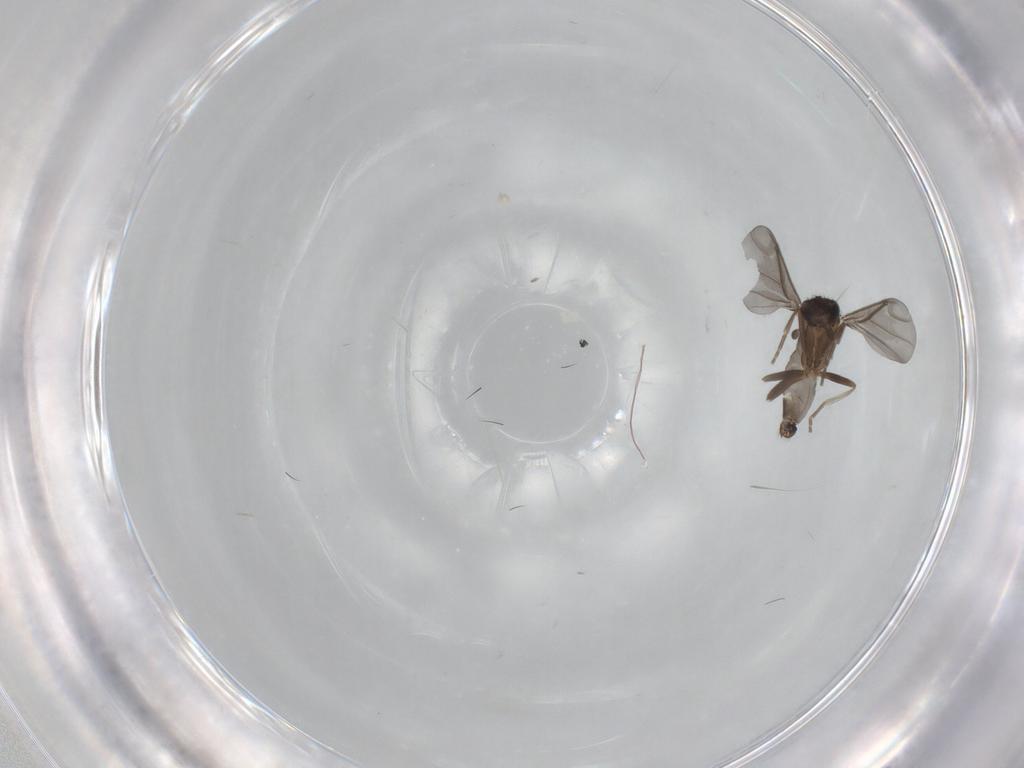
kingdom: Animalia
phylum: Arthropoda
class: Insecta
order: Diptera
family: Phoridae
